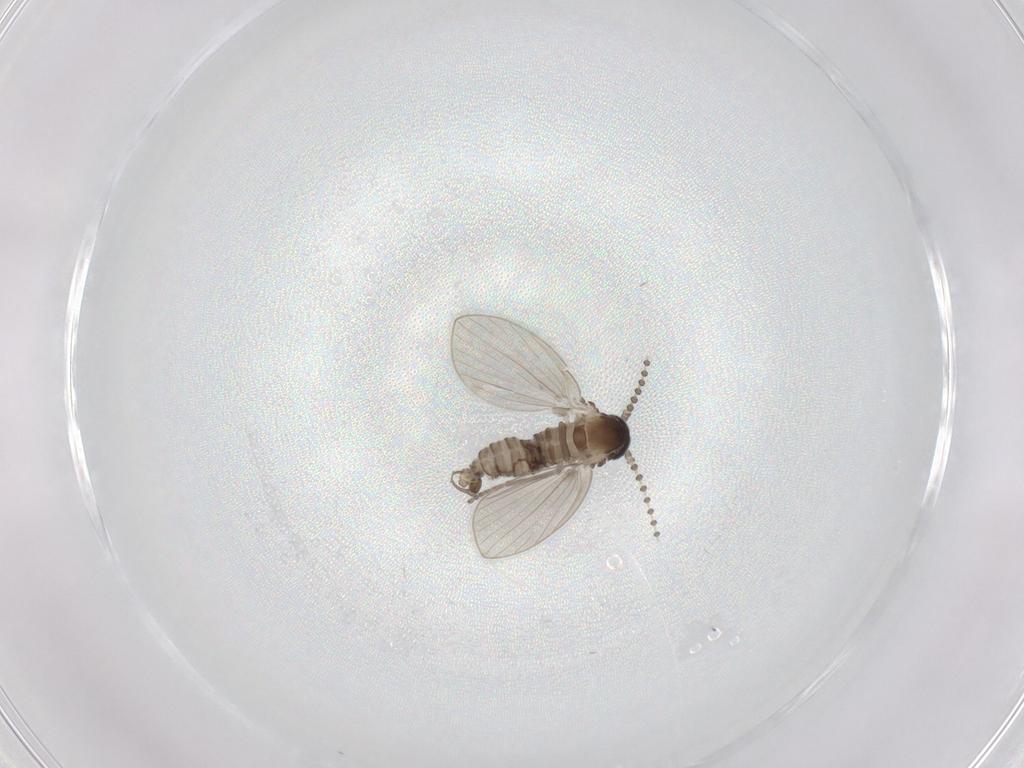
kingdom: Animalia
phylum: Arthropoda
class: Insecta
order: Diptera
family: Psychodidae
